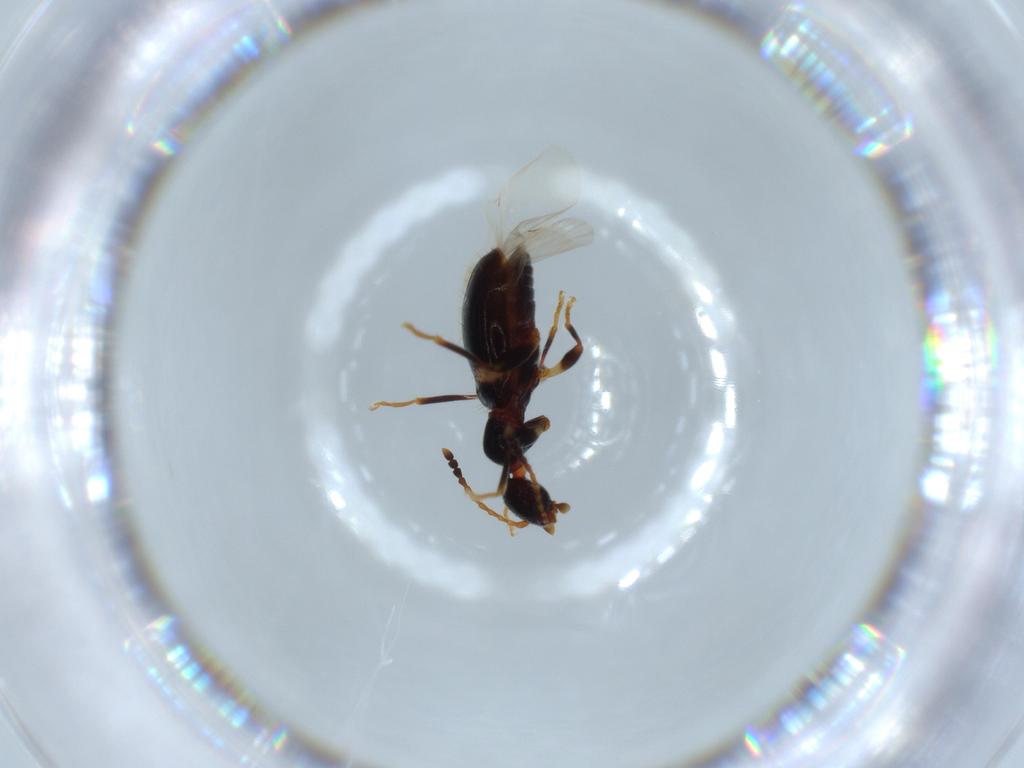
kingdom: Animalia
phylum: Arthropoda
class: Insecta
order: Coleoptera
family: Anthicidae
